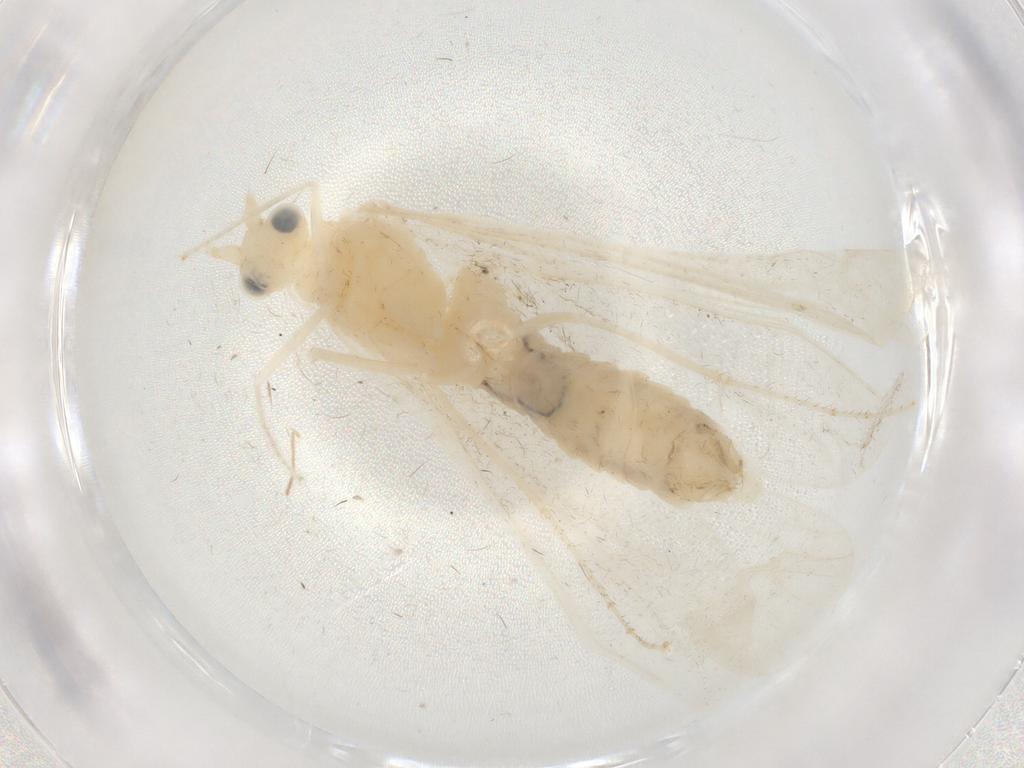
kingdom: Animalia
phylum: Arthropoda
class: Insecta
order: Trichoptera
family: Leptoceridae
